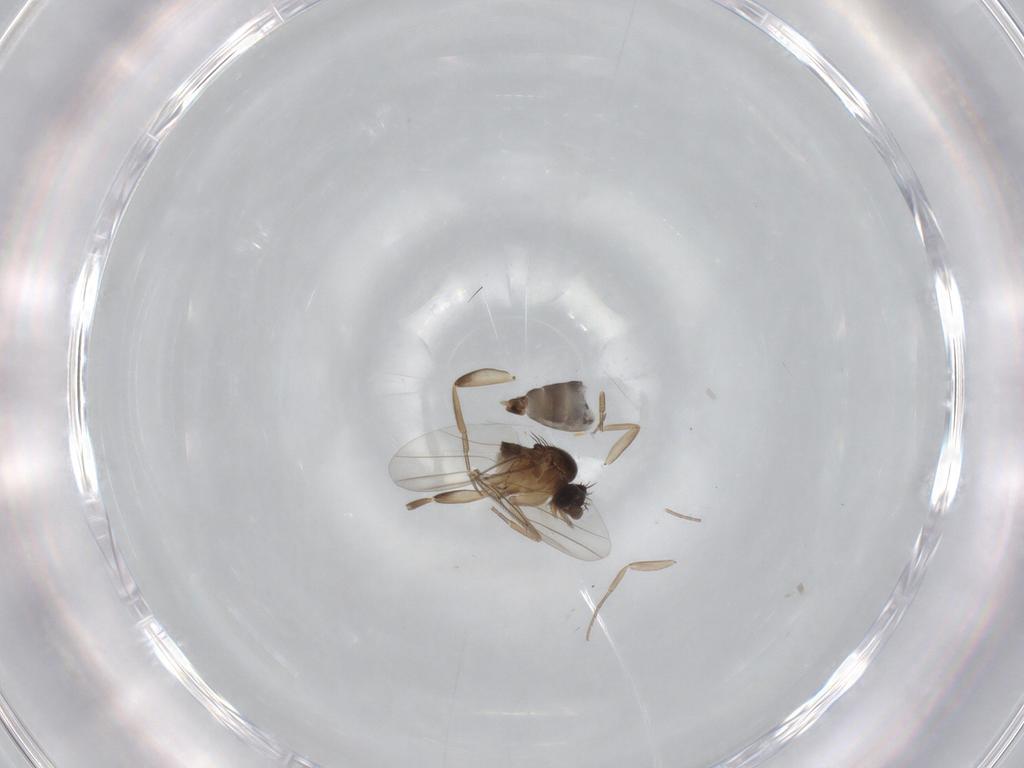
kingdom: Animalia
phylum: Arthropoda
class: Insecta
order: Diptera
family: Phoridae
